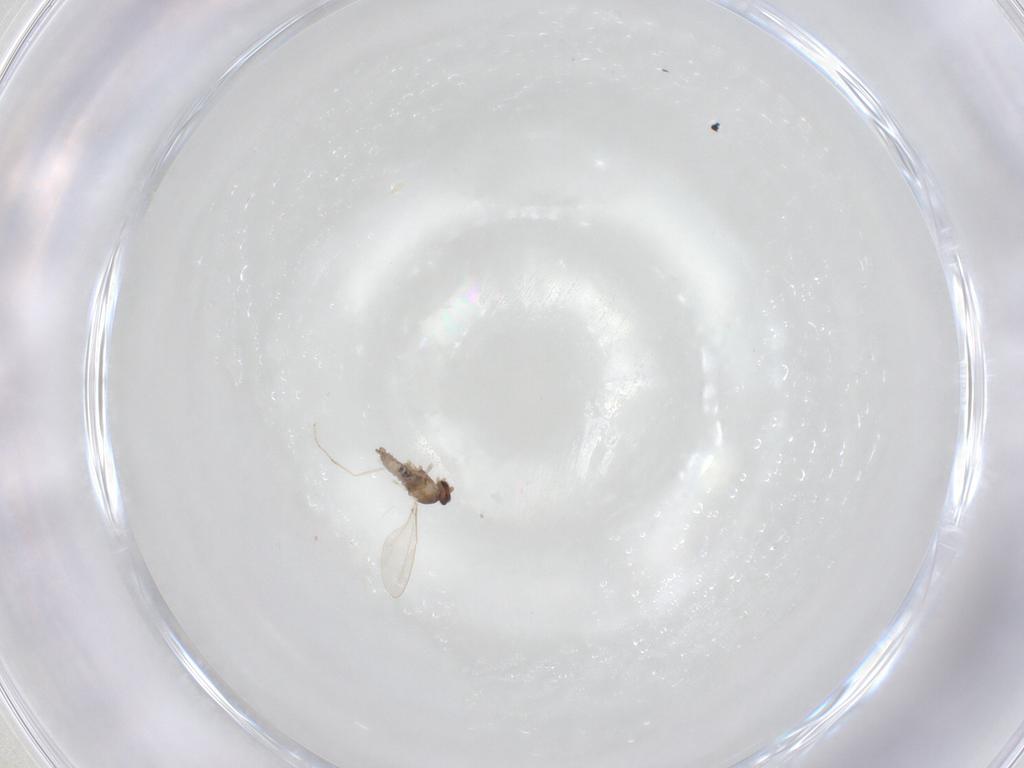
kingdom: Animalia
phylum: Arthropoda
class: Insecta
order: Diptera
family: Cecidomyiidae
